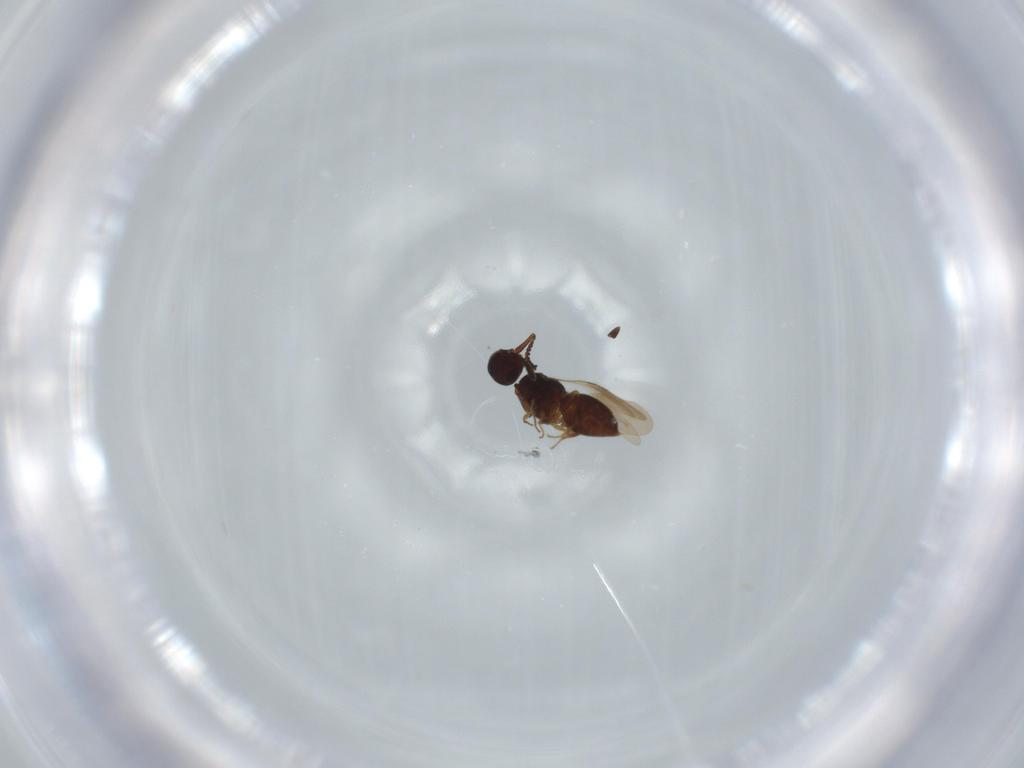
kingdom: Animalia
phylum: Arthropoda
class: Insecta
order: Hymenoptera
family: Ceraphronidae
